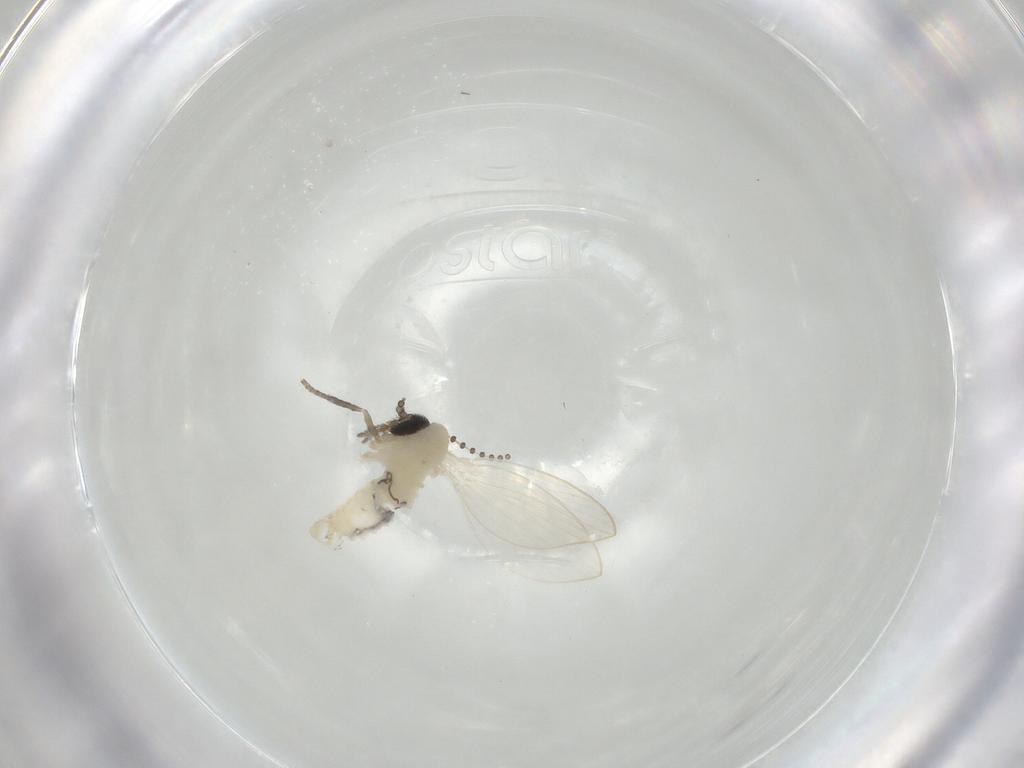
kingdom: Animalia
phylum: Arthropoda
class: Insecta
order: Diptera
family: Psychodidae
